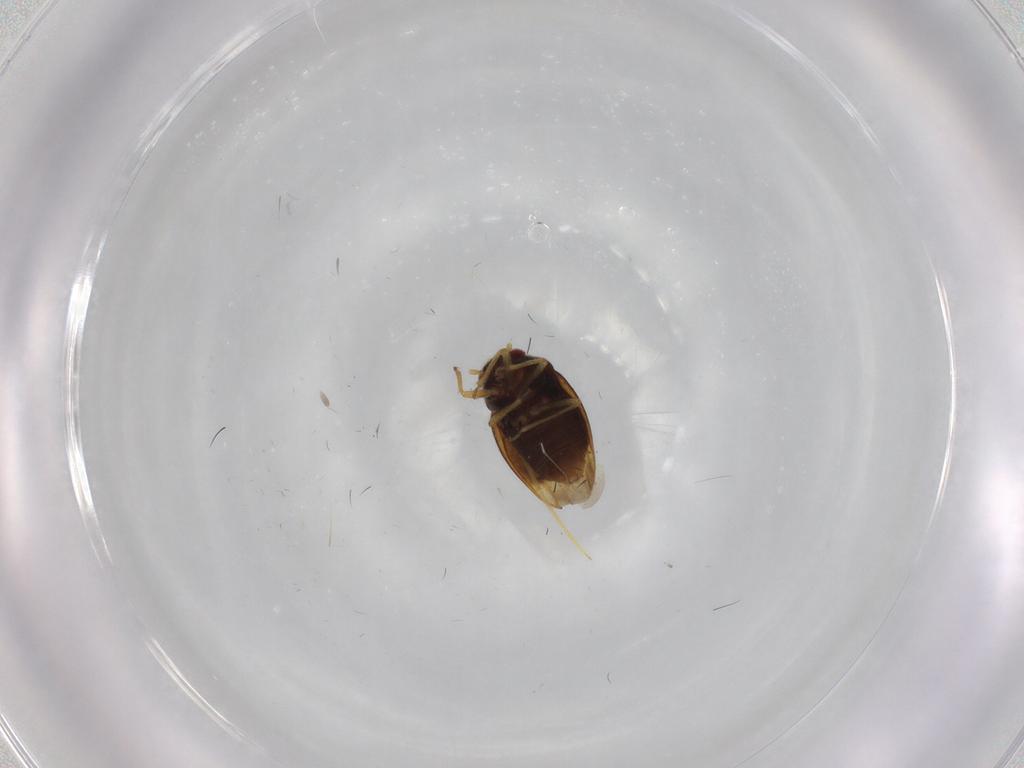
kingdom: Animalia
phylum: Arthropoda
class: Insecta
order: Hemiptera
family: Schizopteridae
